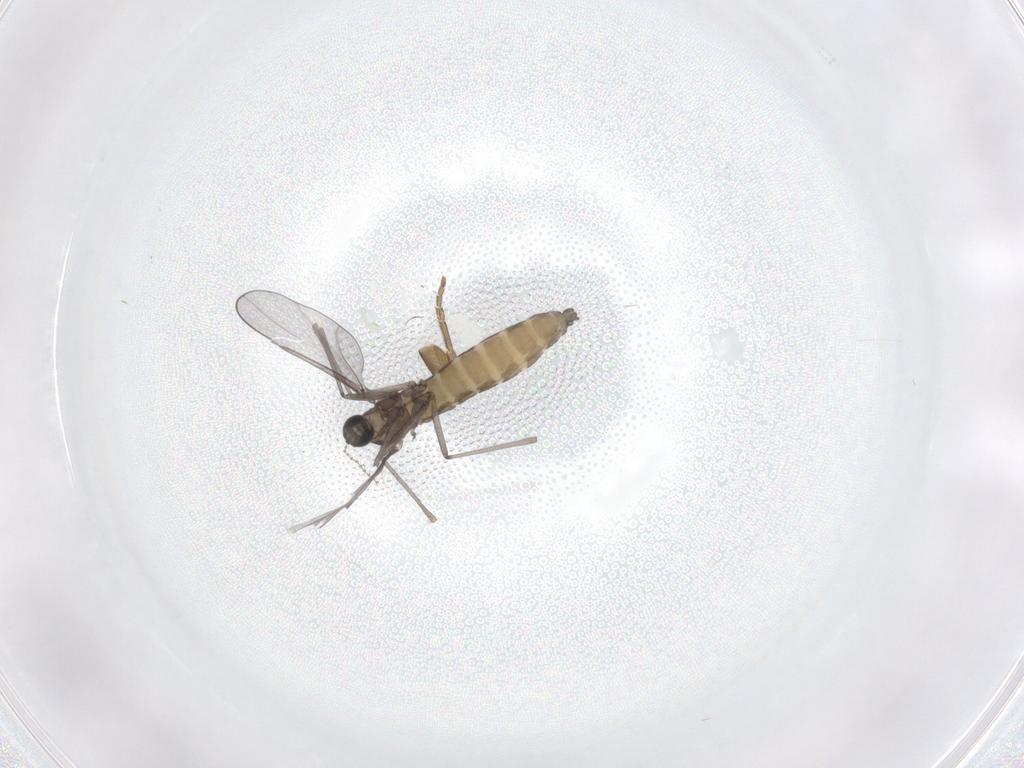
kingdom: Animalia
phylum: Arthropoda
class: Insecta
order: Diptera
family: Cecidomyiidae
